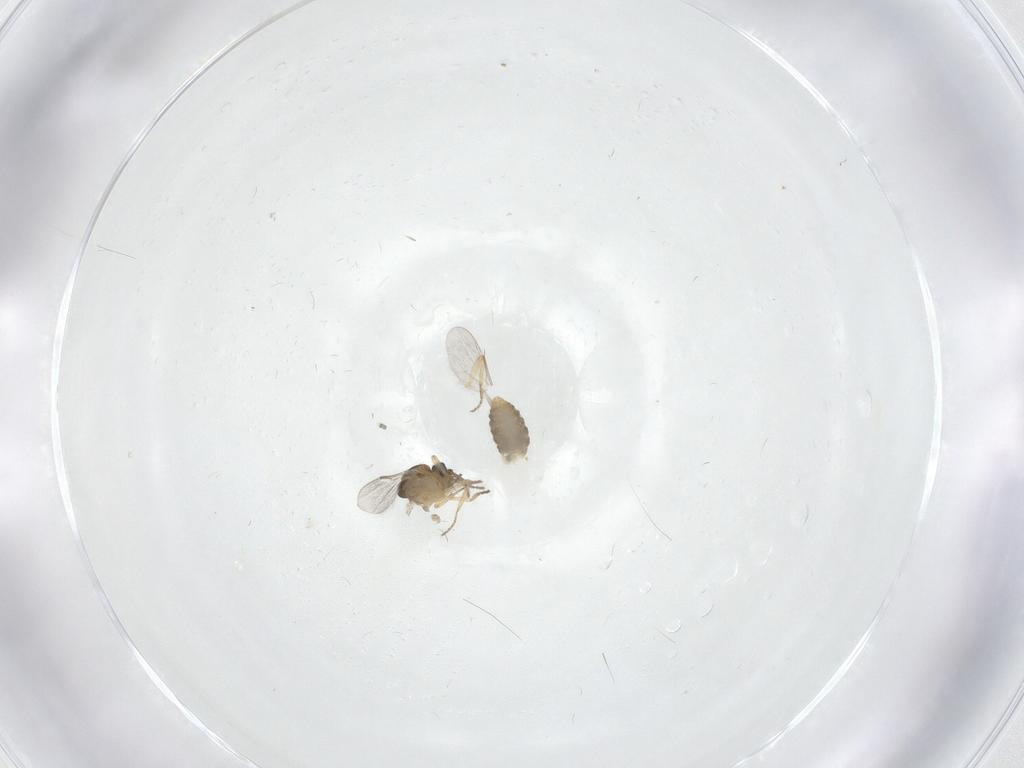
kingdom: Animalia
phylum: Arthropoda
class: Insecta
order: Diptera
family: Ceratopogonidae
